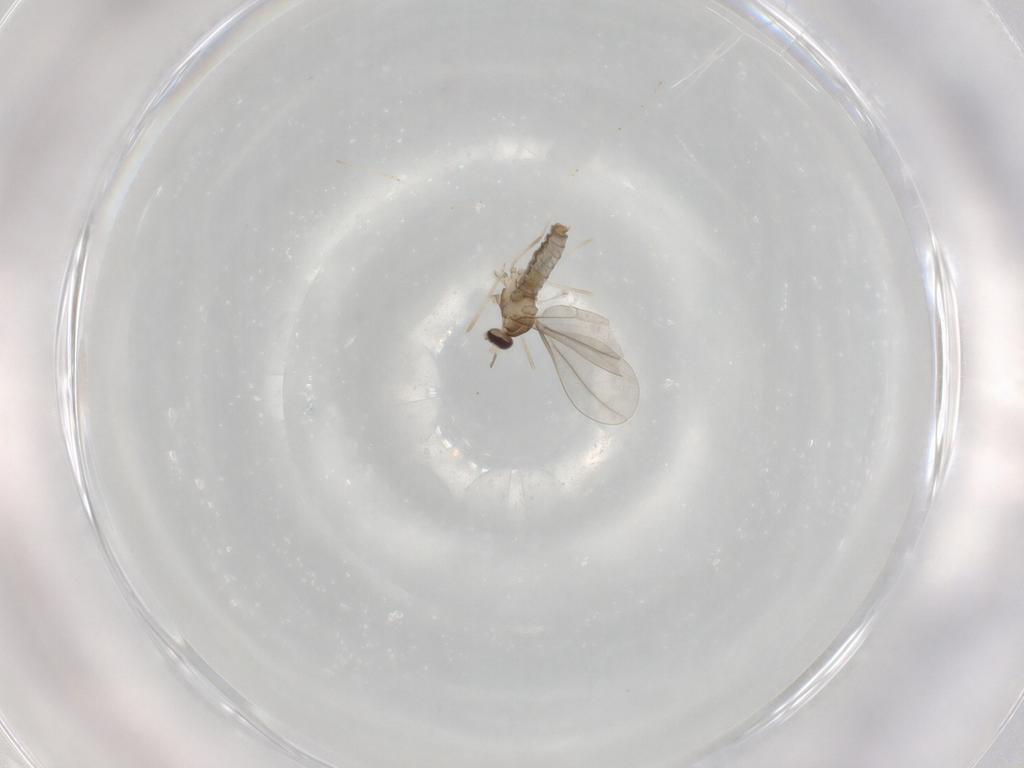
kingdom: Animalia
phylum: Arthropoda
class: Insecta
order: Diptera
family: Cecidomyiidae
